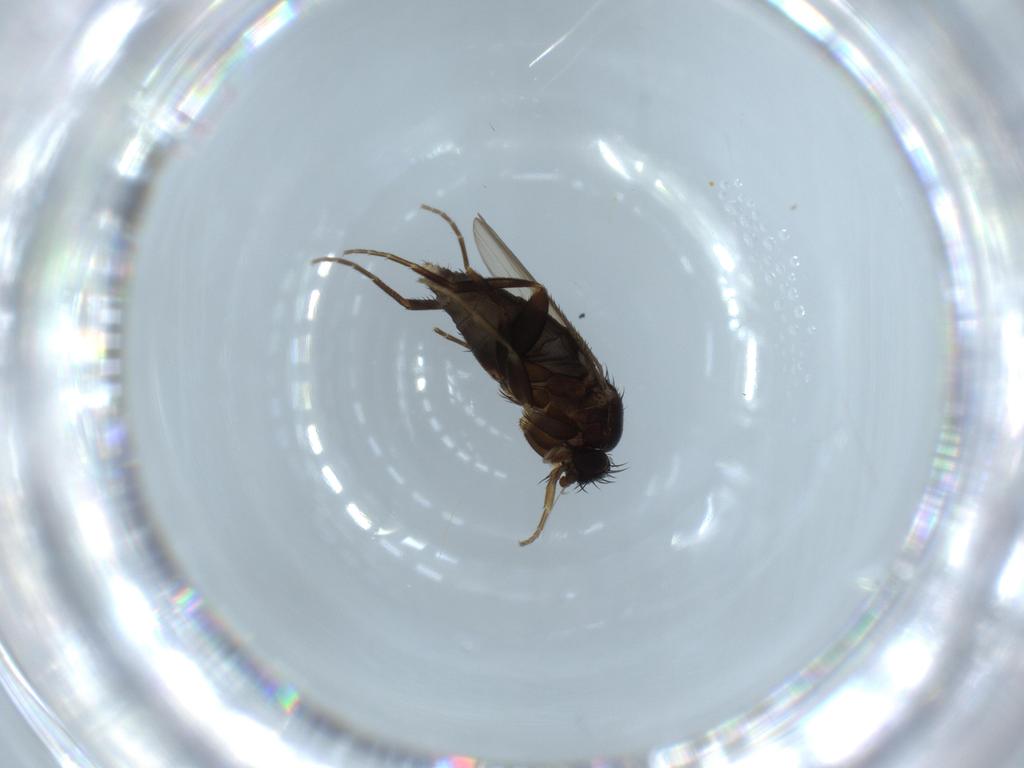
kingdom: Animalia
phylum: Arthropoda
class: Insecta
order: Diptera
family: Phoridae
